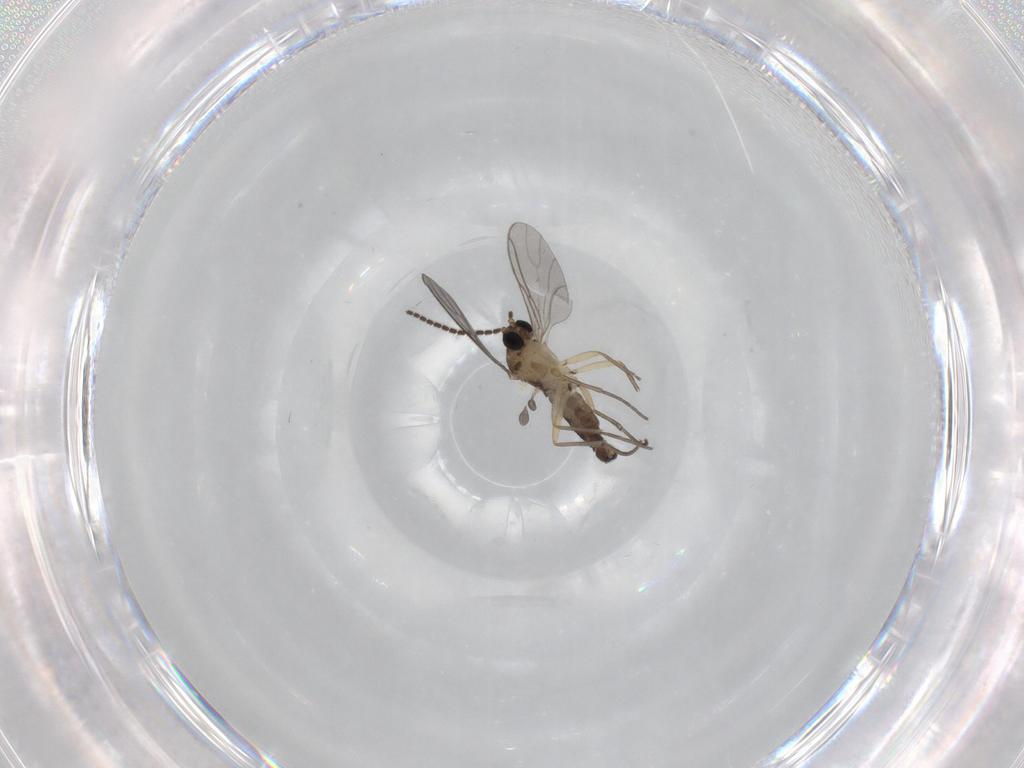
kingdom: Animalia
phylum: Arthropoda
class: Insecta
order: Diptera
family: Sciaridae
